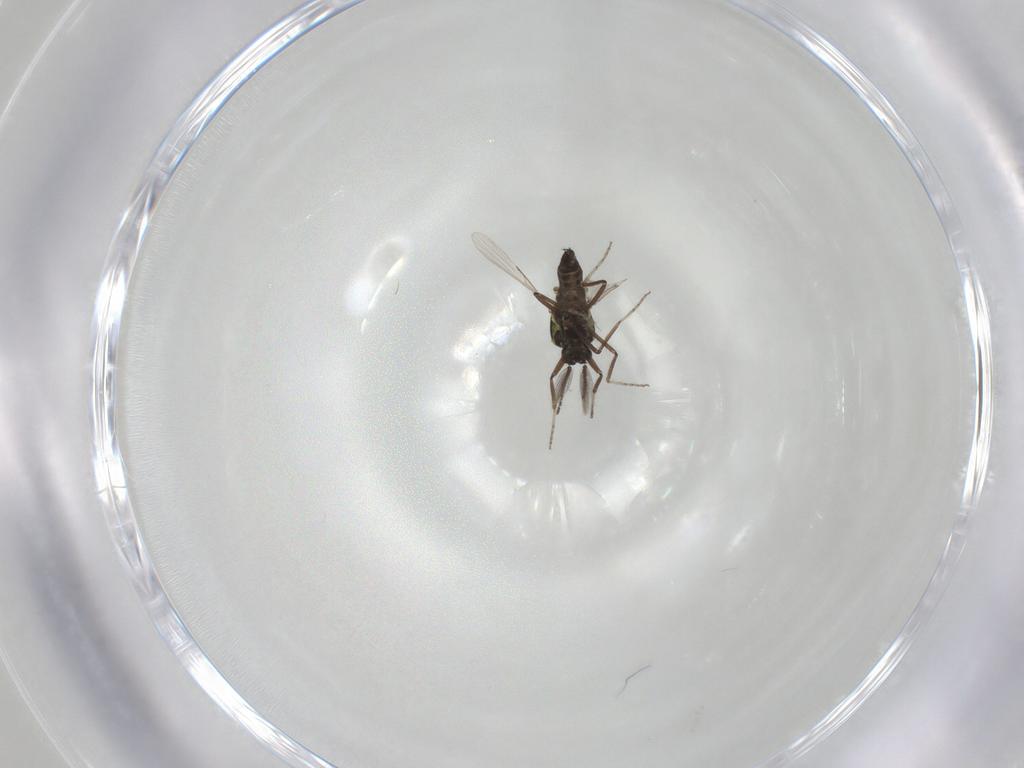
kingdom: Animalia
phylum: Arthropoda
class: Insecta
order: Diptera
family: Ceratopogonidae
